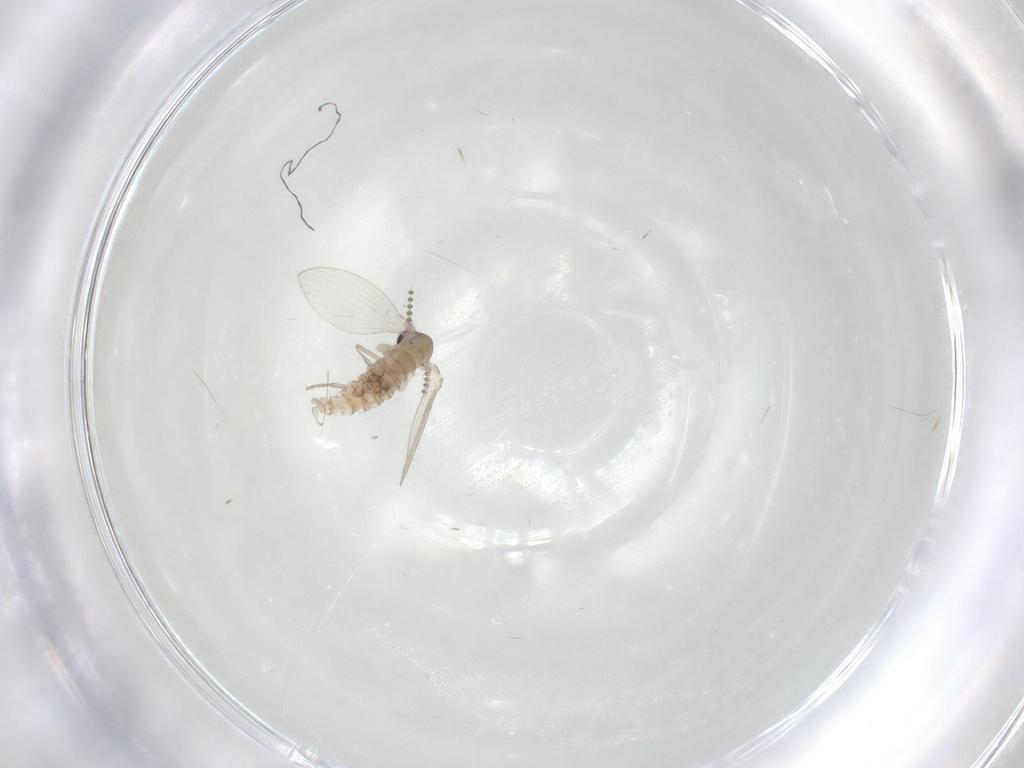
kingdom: Animalia
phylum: Arthropoda
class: Insecta
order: Diptera
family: Psychodidae
